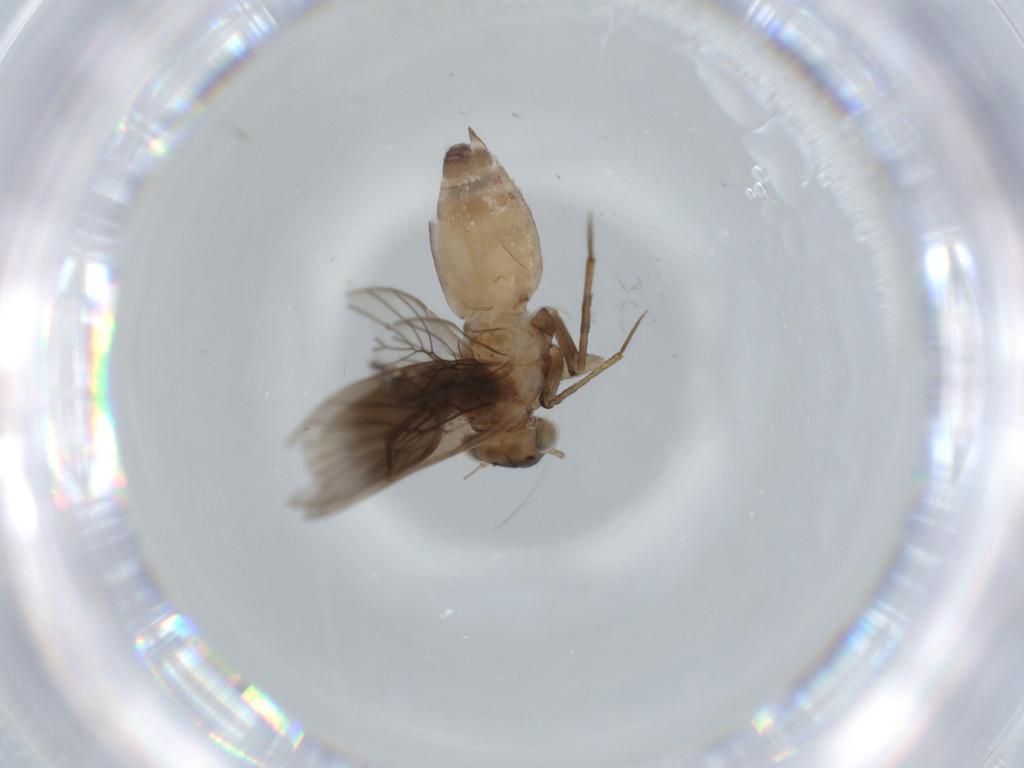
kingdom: Animalia
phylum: Arthropoda
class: Insecta
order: Psocodea
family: Lepidopsocidae
